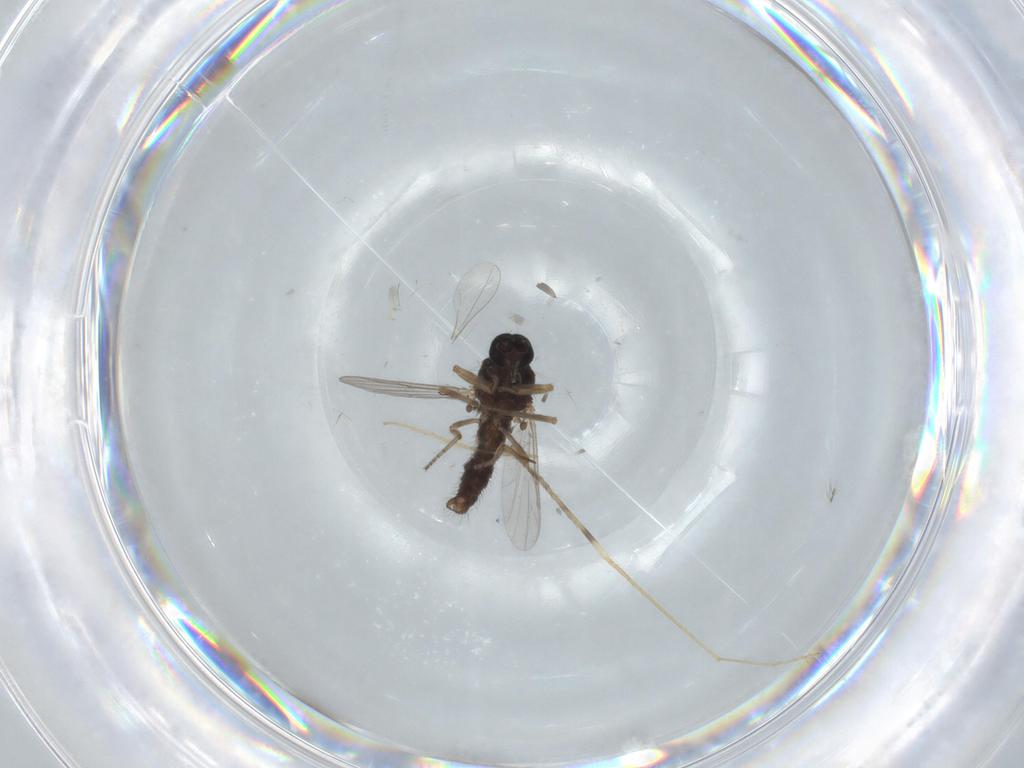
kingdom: Animalia
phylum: Arthropoda
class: Insecta
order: Diptera
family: Ceratopogonidae
